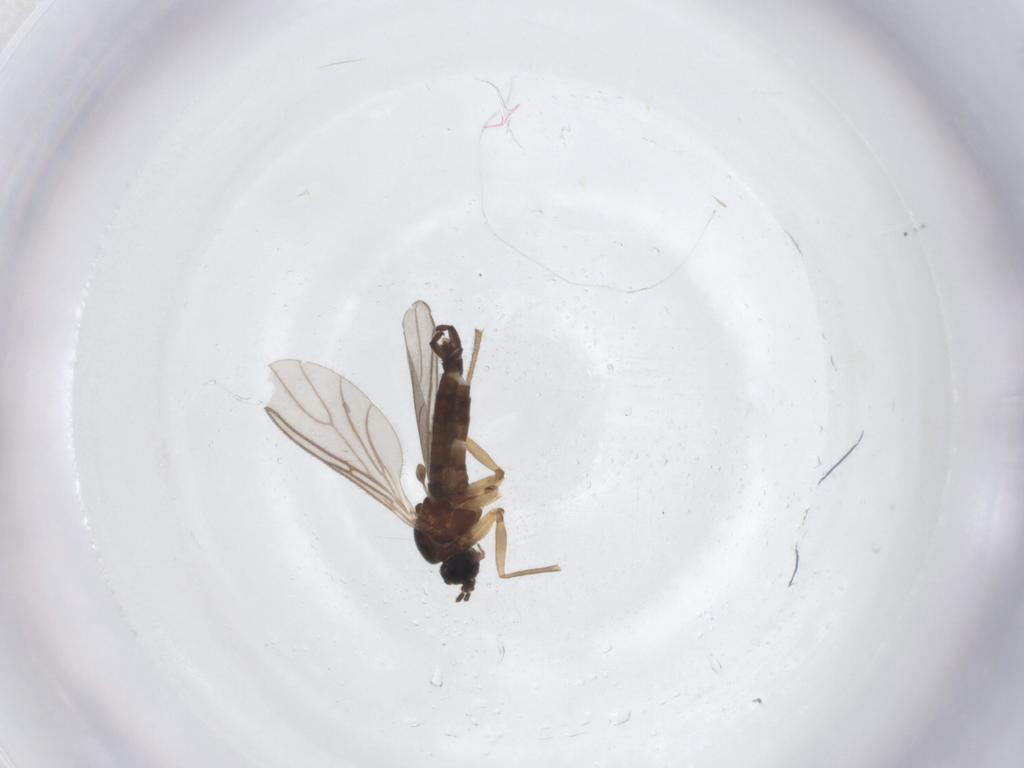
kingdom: Animalia
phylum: Arthropoda
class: Insecta
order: Diptera
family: Sciaridae
